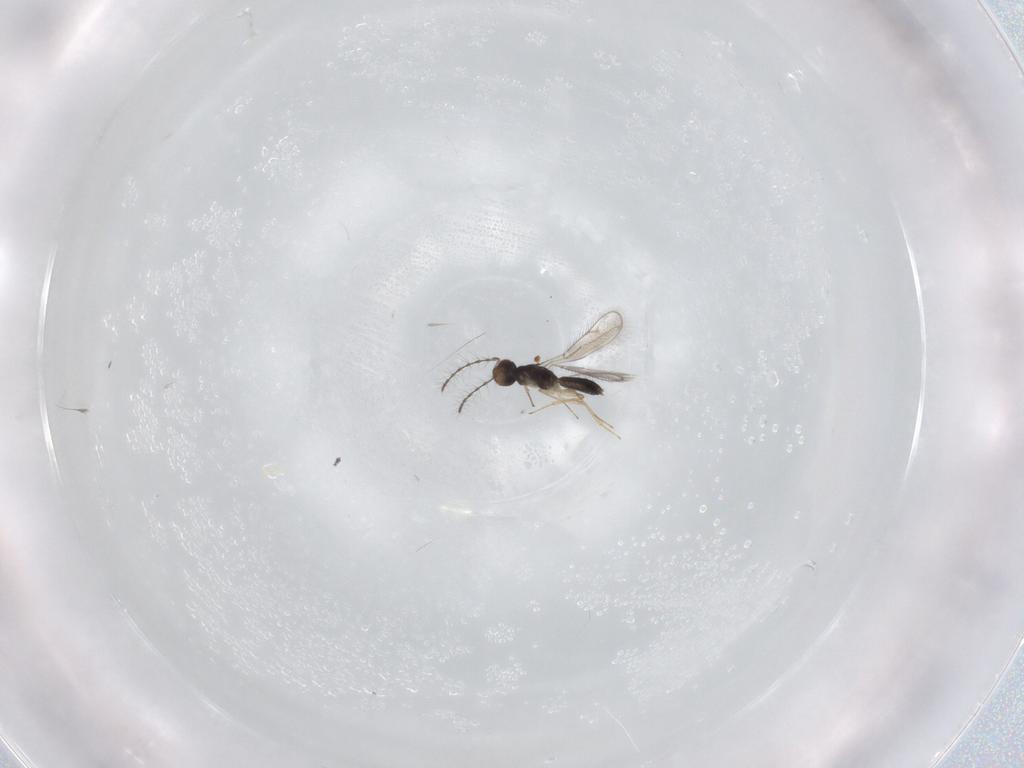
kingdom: Animalia
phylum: Arthropoda
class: Insecta
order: Hymenoptera
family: Pteromalidae
